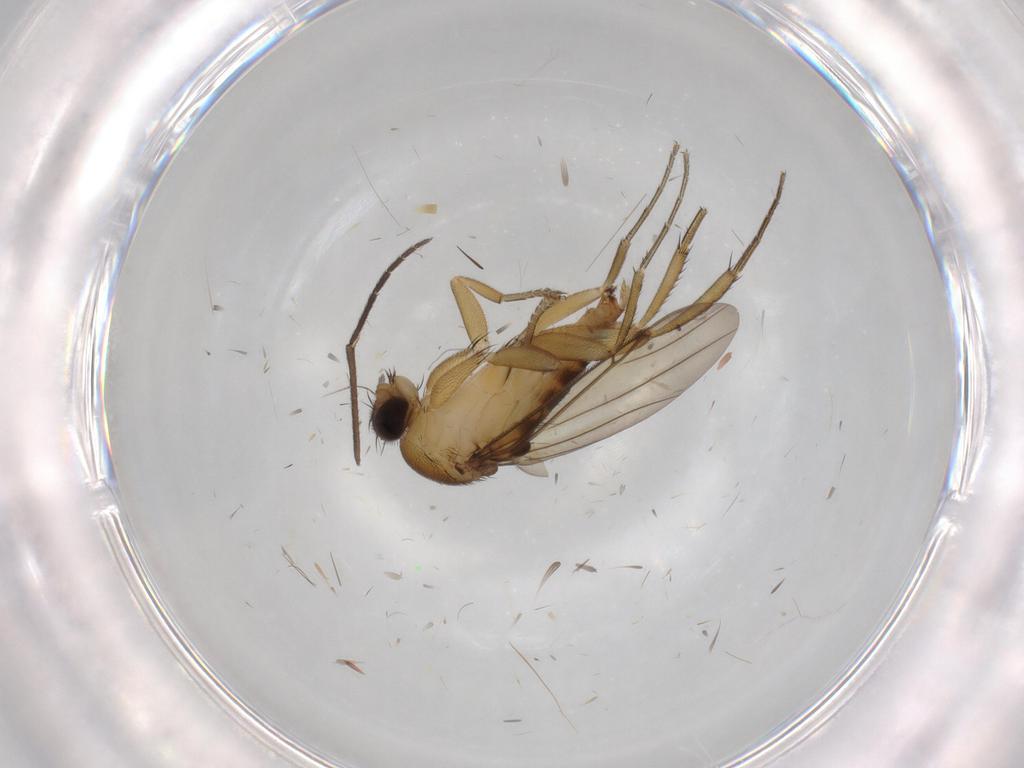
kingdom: Animalia
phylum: Arthropoda
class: Insecta
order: Diptera
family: Phoridae
